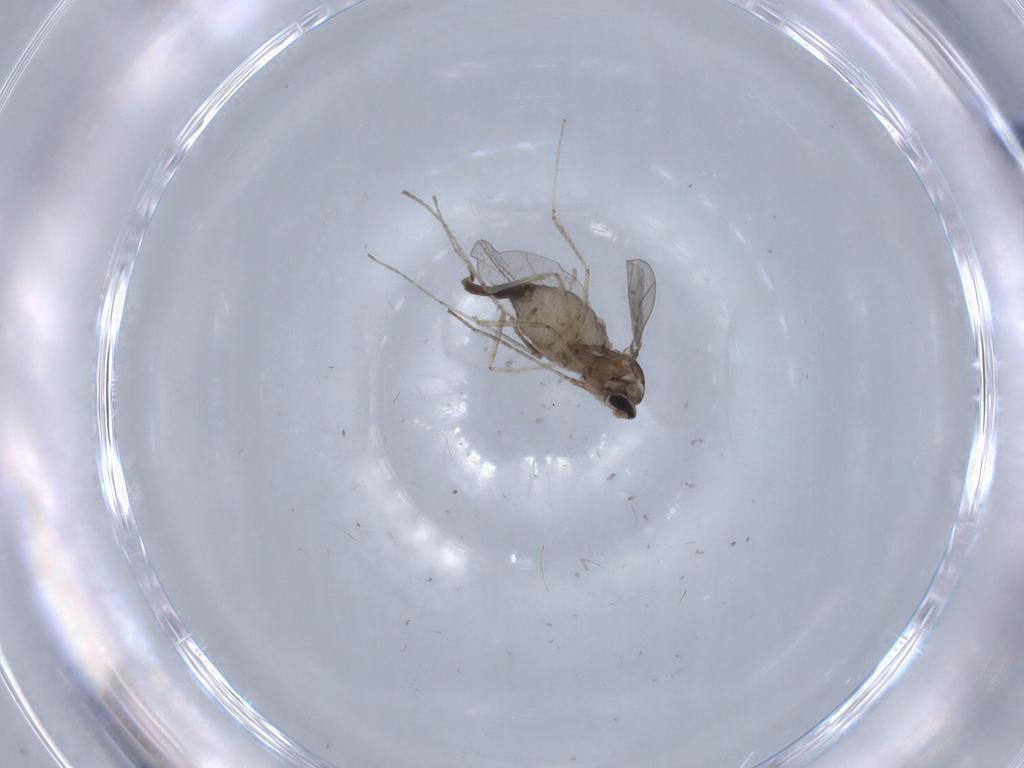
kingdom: Animalia
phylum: Arthropoda
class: Insecta
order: Diptera
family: Cecidomyiidae
